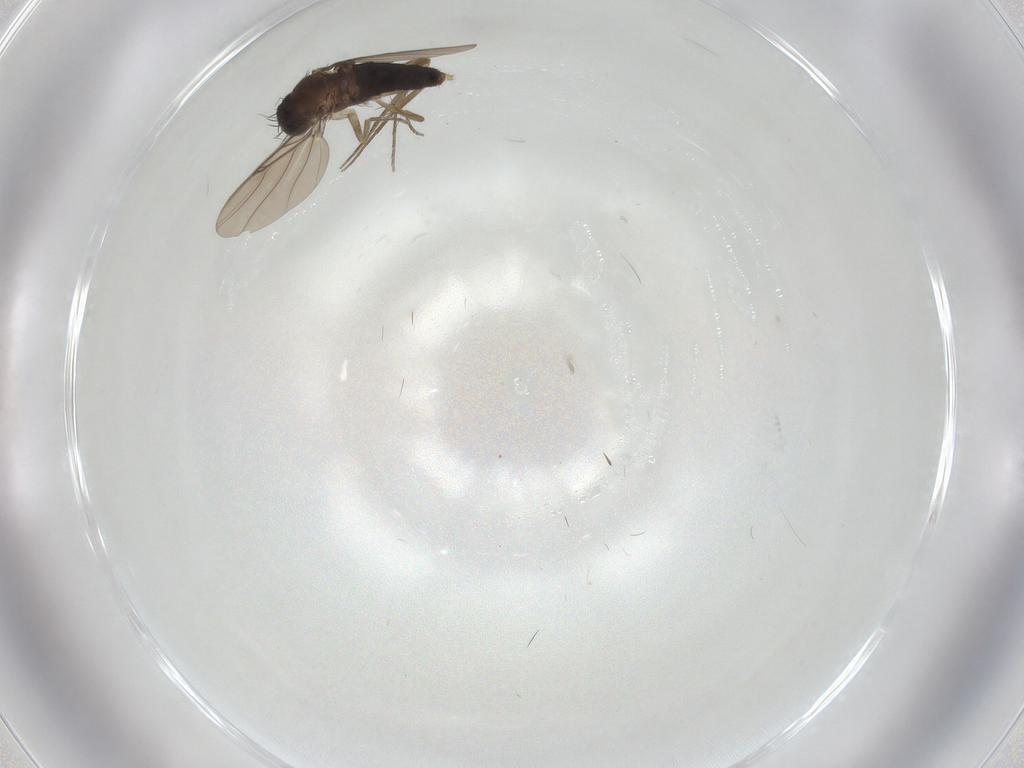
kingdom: Animalia
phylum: Arthropoda
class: Insecta
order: Diptera
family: Phoridae
